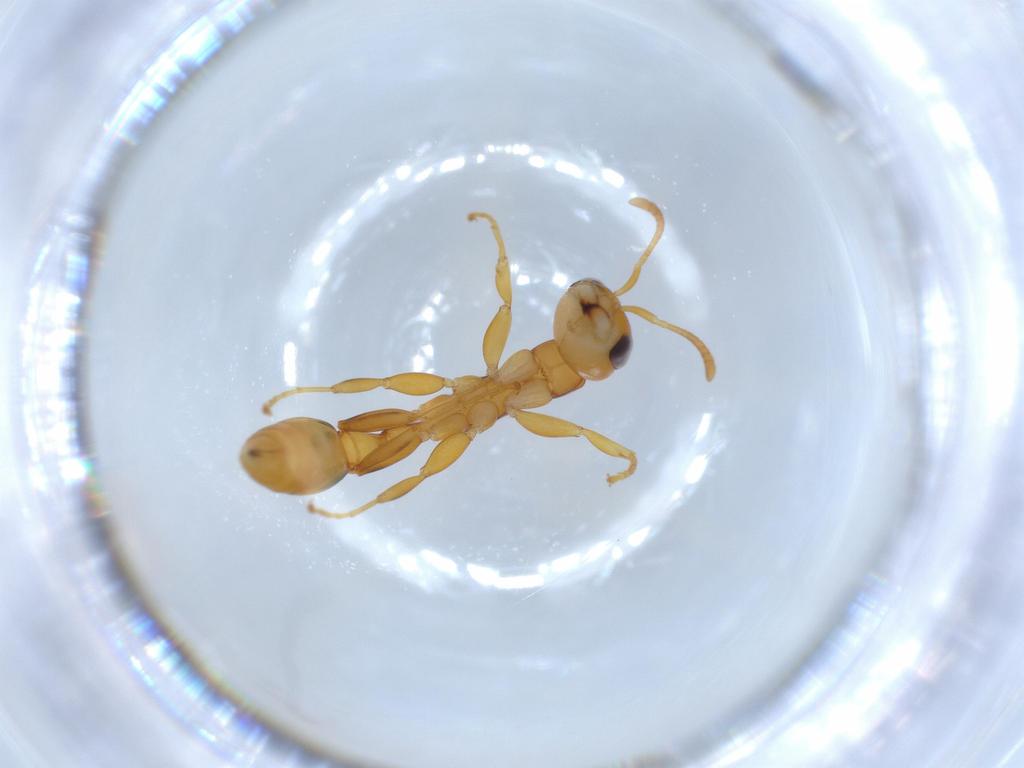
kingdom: Animalia
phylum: Arthropoda
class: Insecta
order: Hymenoptera
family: Formicidae
